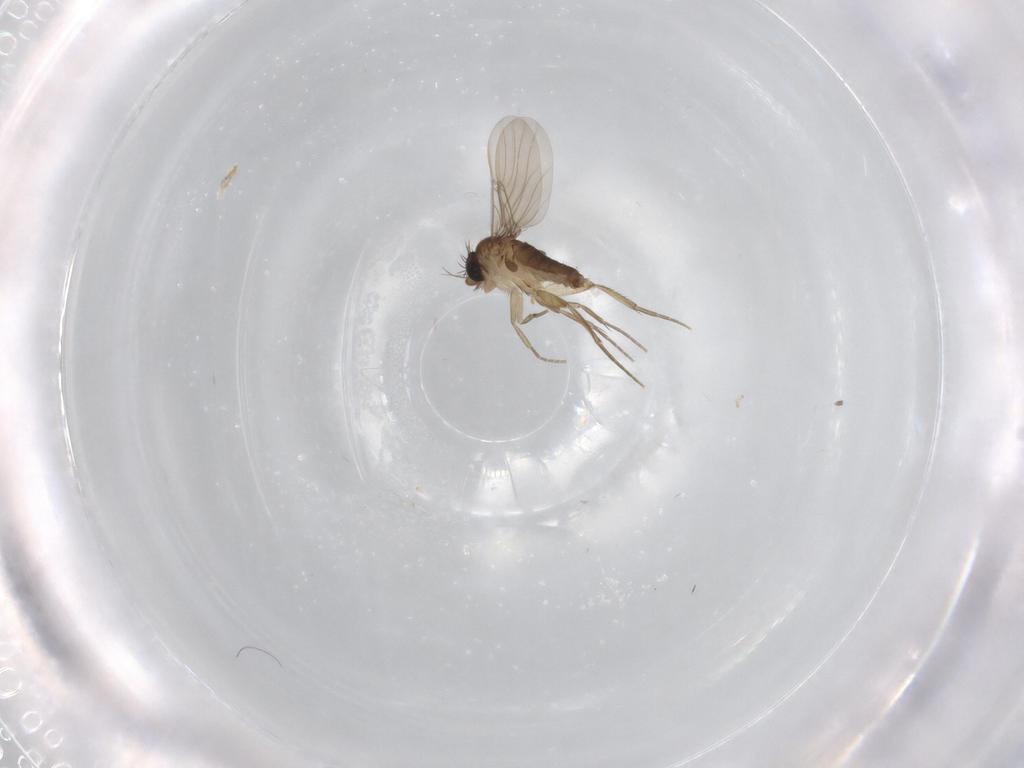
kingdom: Animalia
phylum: Arthropoda
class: Insecta
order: Diptera
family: Phoridae
